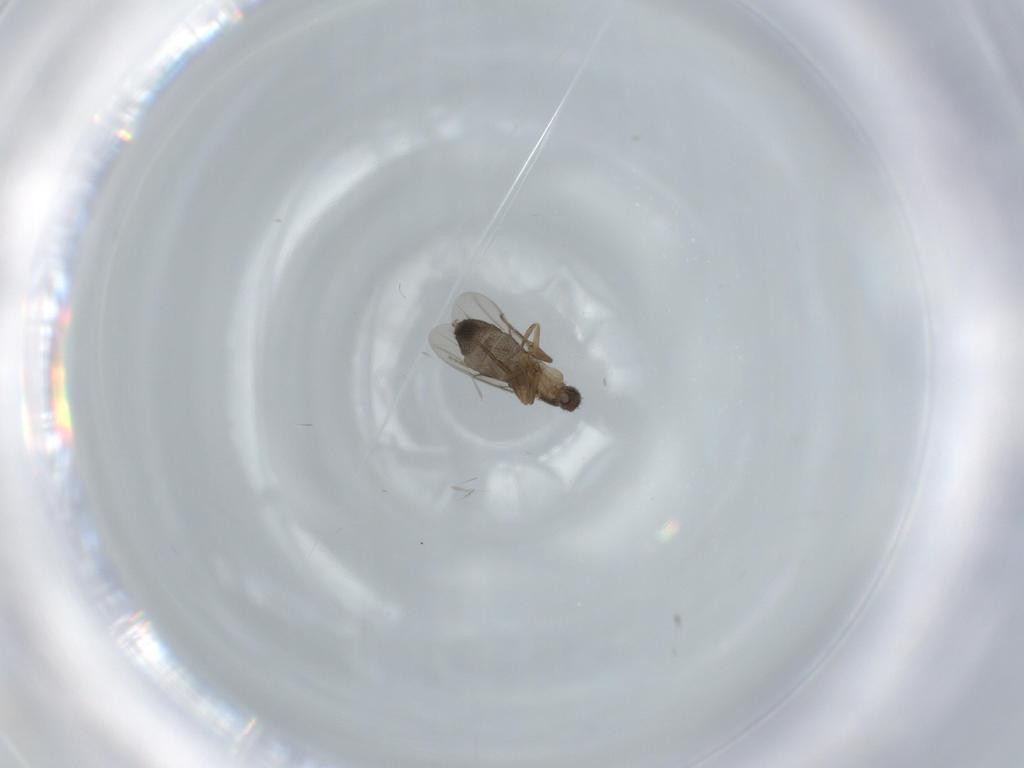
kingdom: Animalia
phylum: Arthropoda
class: Insecta
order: Diptera
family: Phoridae
